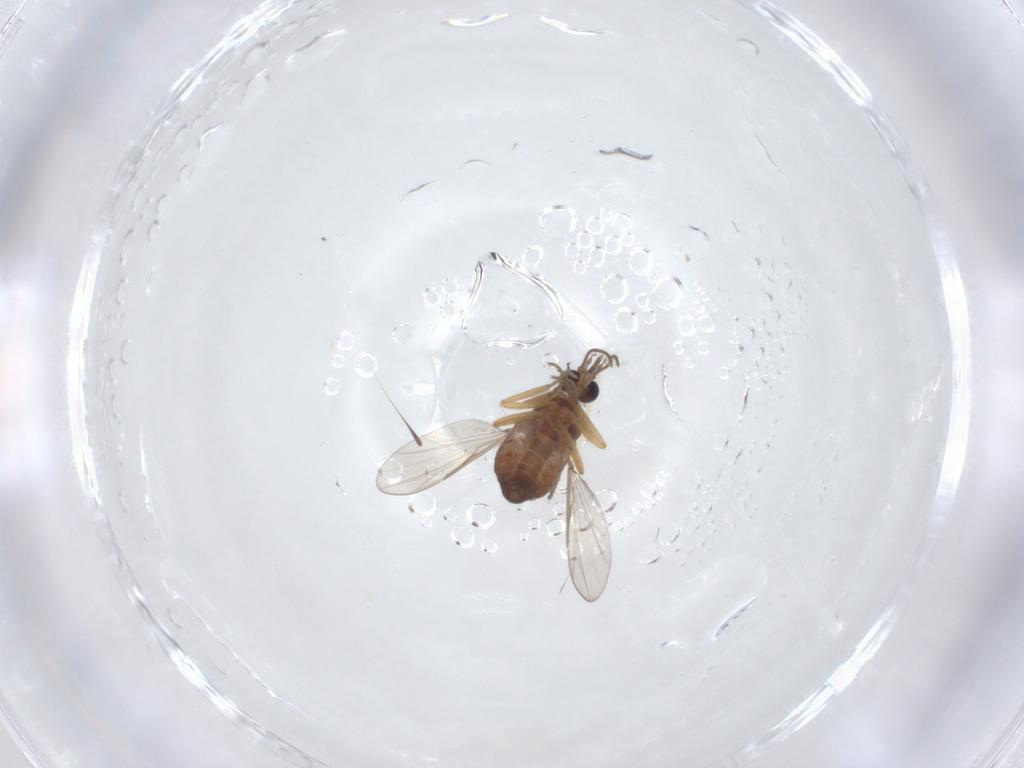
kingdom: Animalia
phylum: Arthropoda
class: Insecta
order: Diptera
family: Ceratopogonidae
